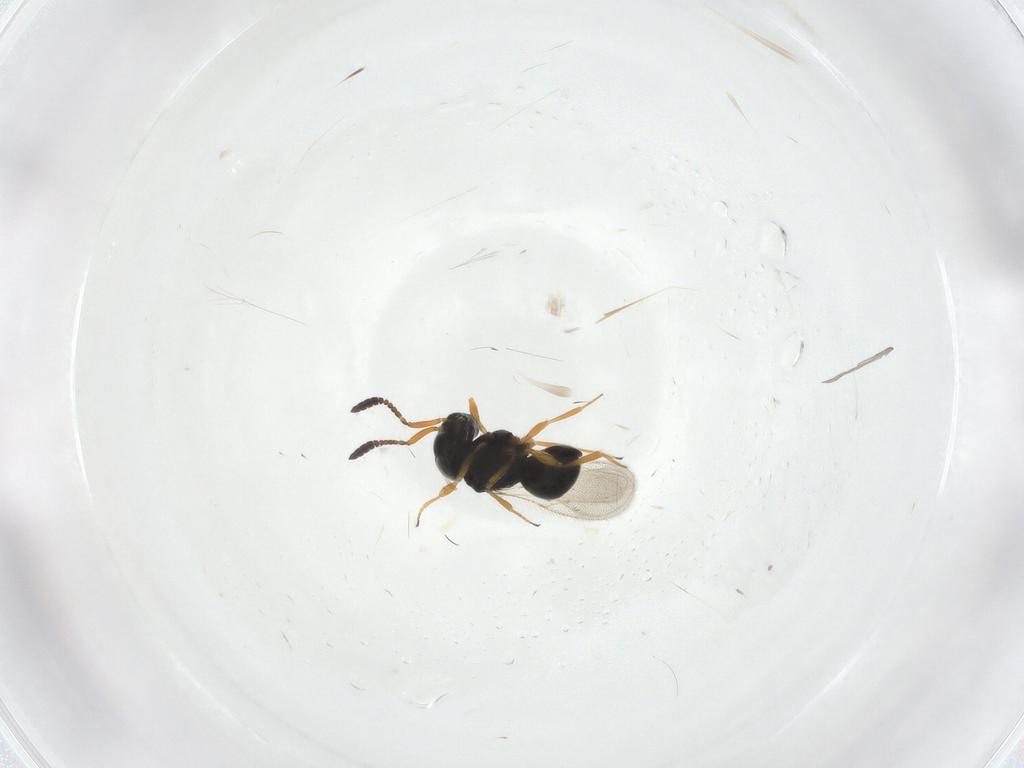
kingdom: Animalia
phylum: Arthropoda
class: Insecta
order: Hymenoptera
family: Scelionidae
